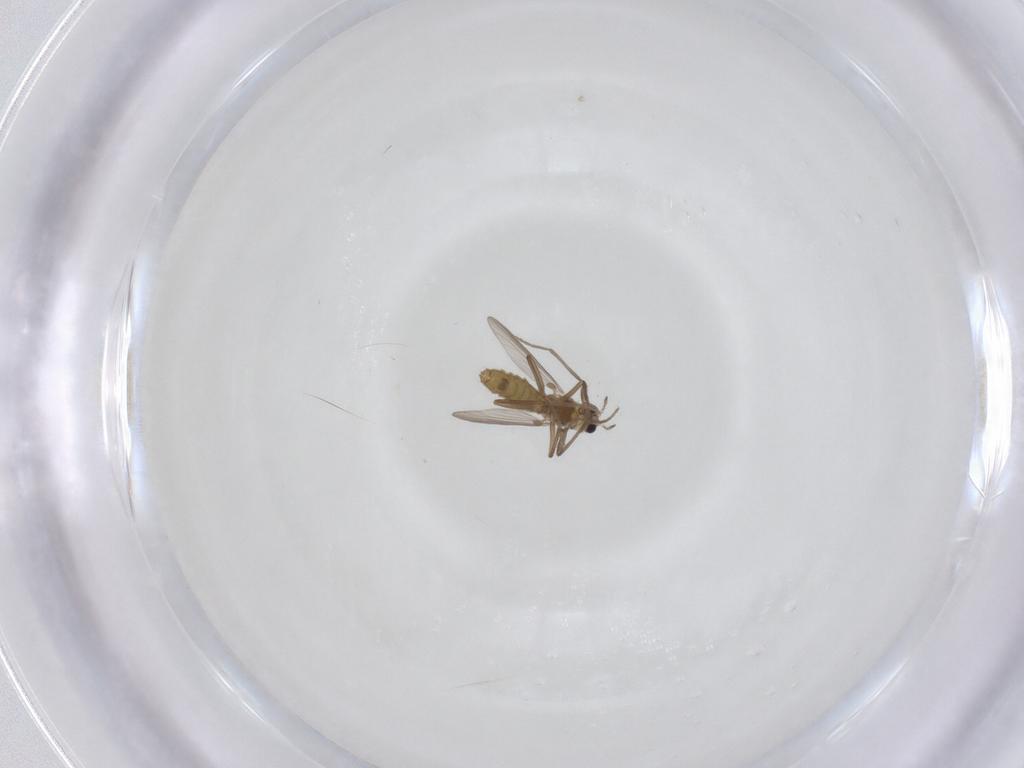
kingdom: Animalia
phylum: Arthropoda
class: Insecta
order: Diptera
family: Chironomidae
